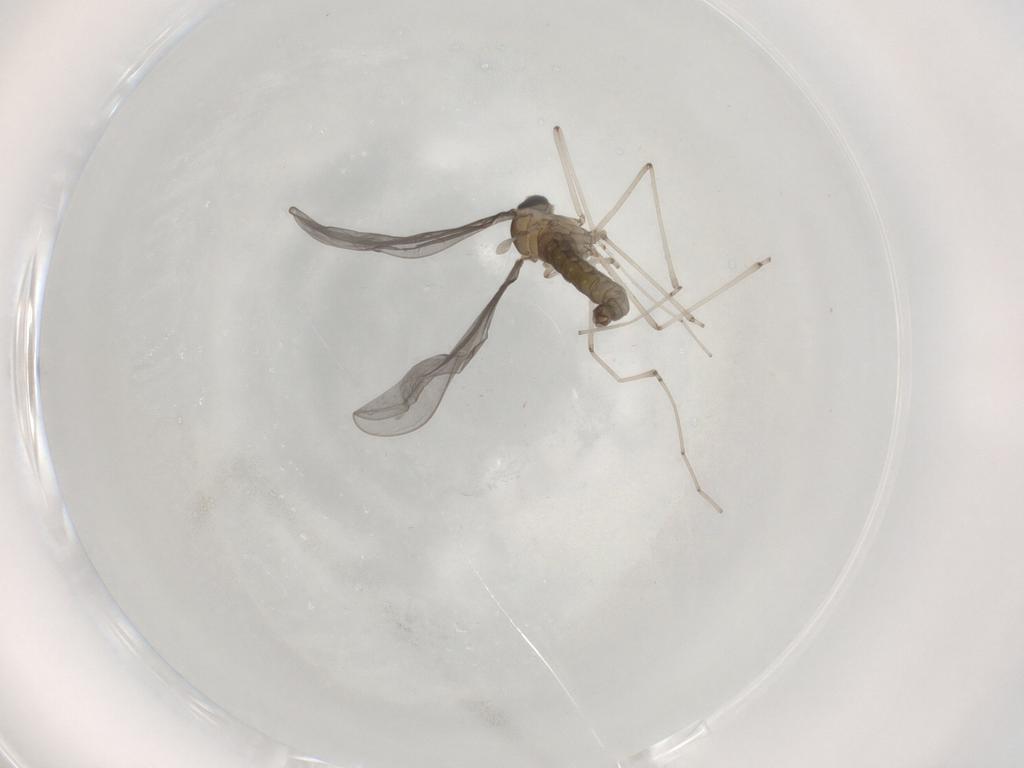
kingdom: Animalia
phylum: Arthropoda
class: Insecta
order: Diptera
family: Cecidomyiidae
